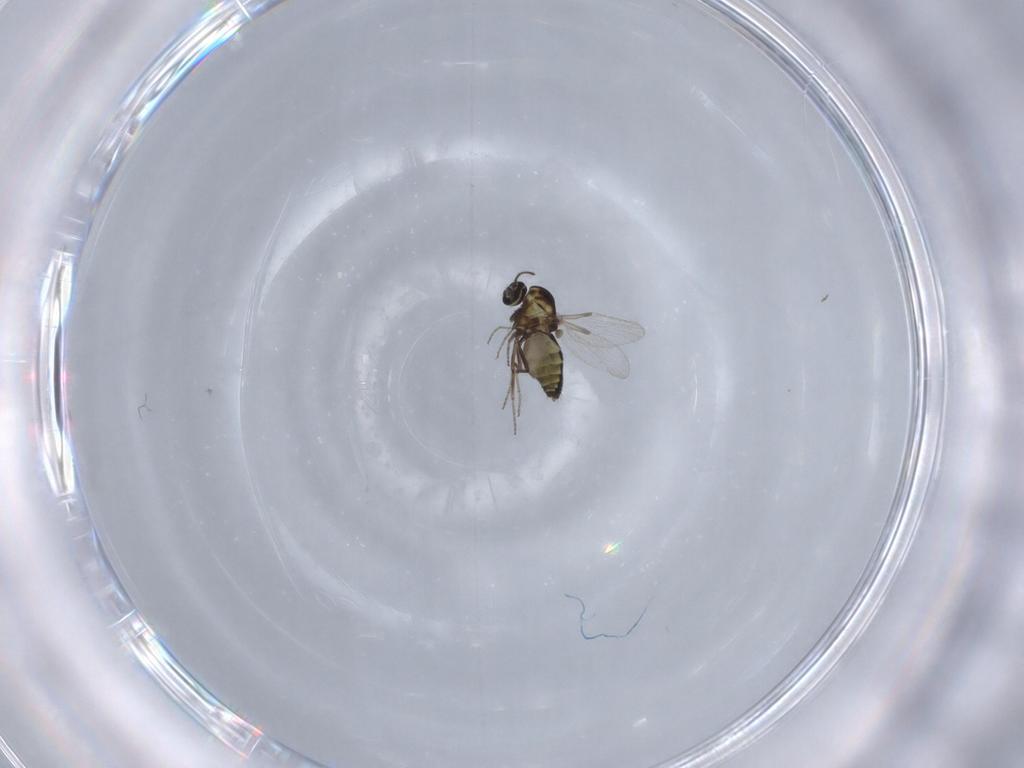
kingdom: Animalia
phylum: Arthropoda
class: Insecta
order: Diptera
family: Ceratopogonidae
